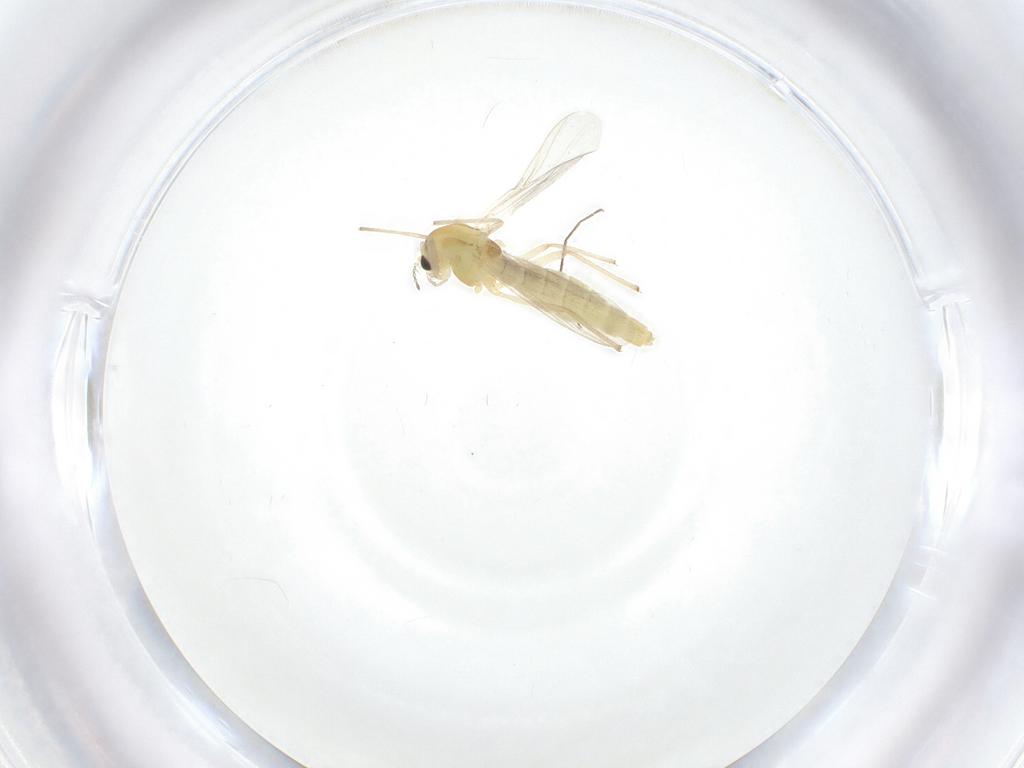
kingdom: Animalia
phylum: Arthropoda
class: Insecta
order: Diptera
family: Chironomidae
